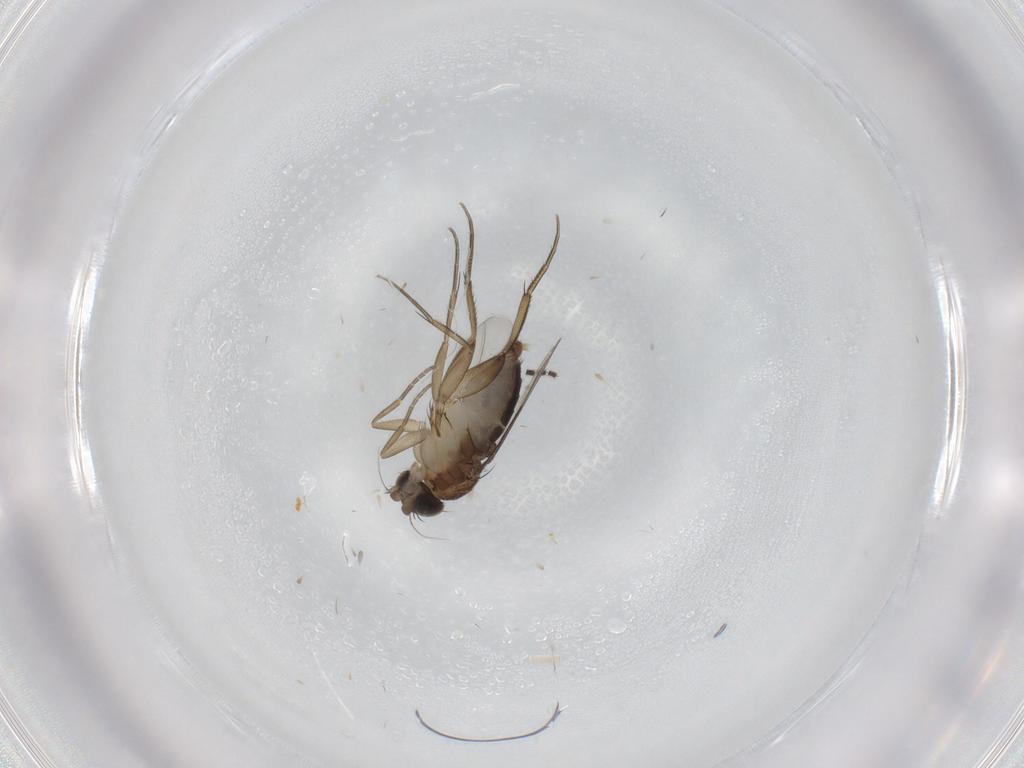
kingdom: Animalia
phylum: Arthropoda
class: Insecta
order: Diptera
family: Phoridae
